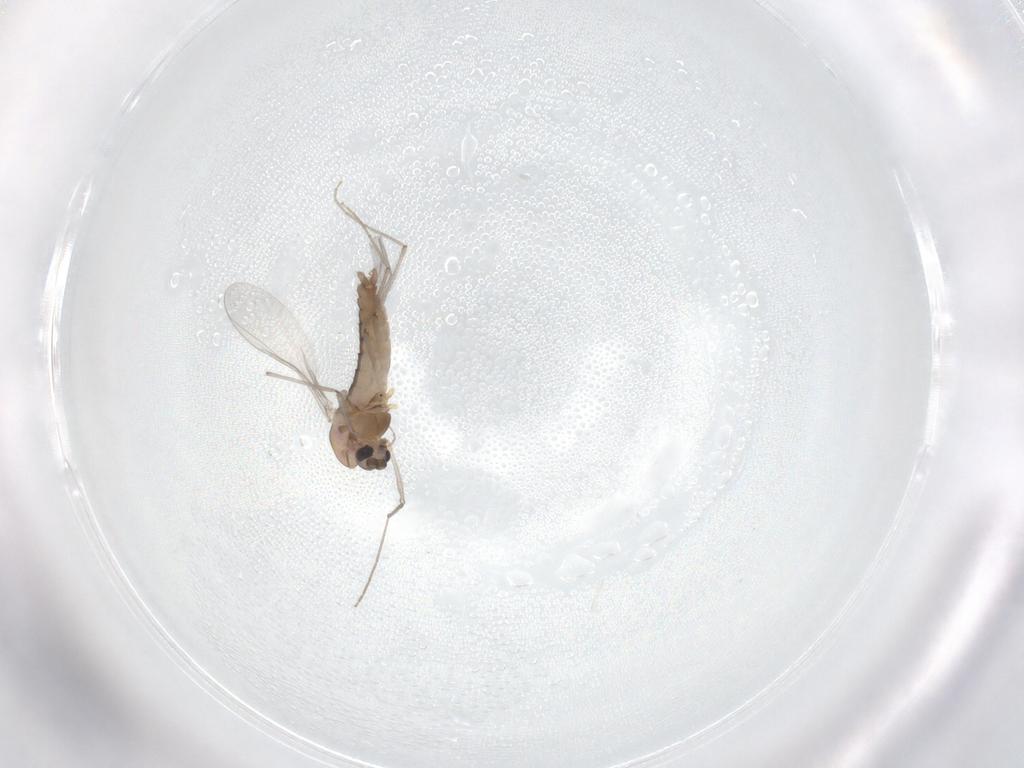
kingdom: Animalia
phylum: Arthropoda
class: Insecta
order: Diptera
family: Chironomidae
